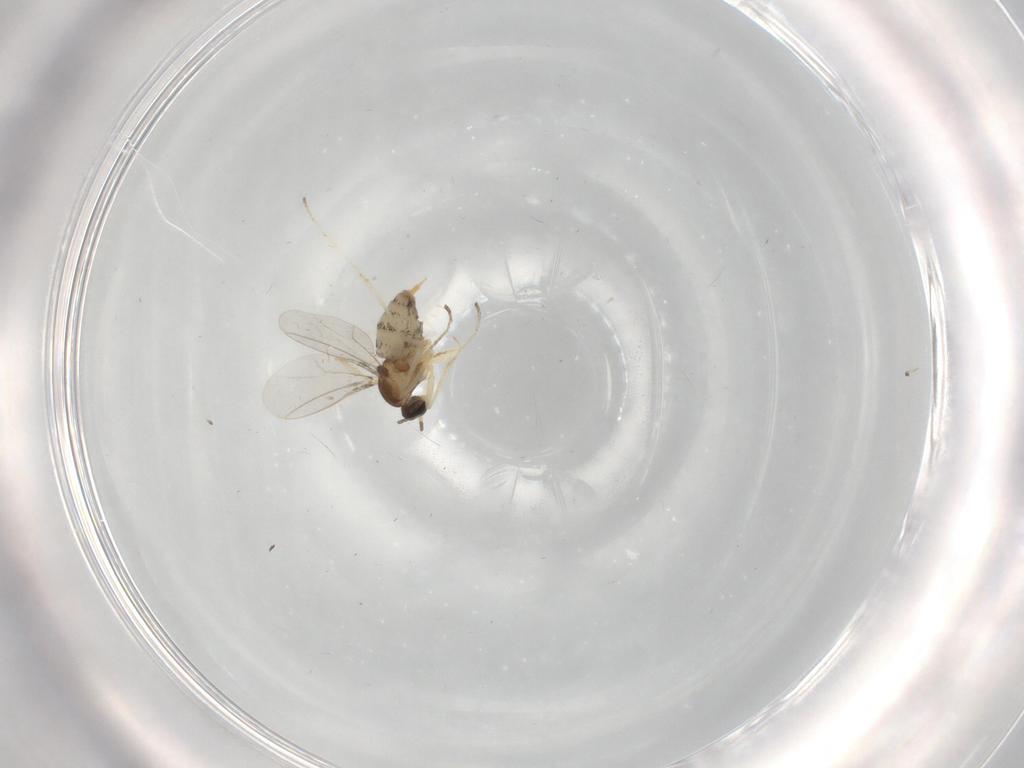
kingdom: Animalia
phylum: Arthropoda
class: Insecta
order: Diptera
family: Cecidomyiidae
